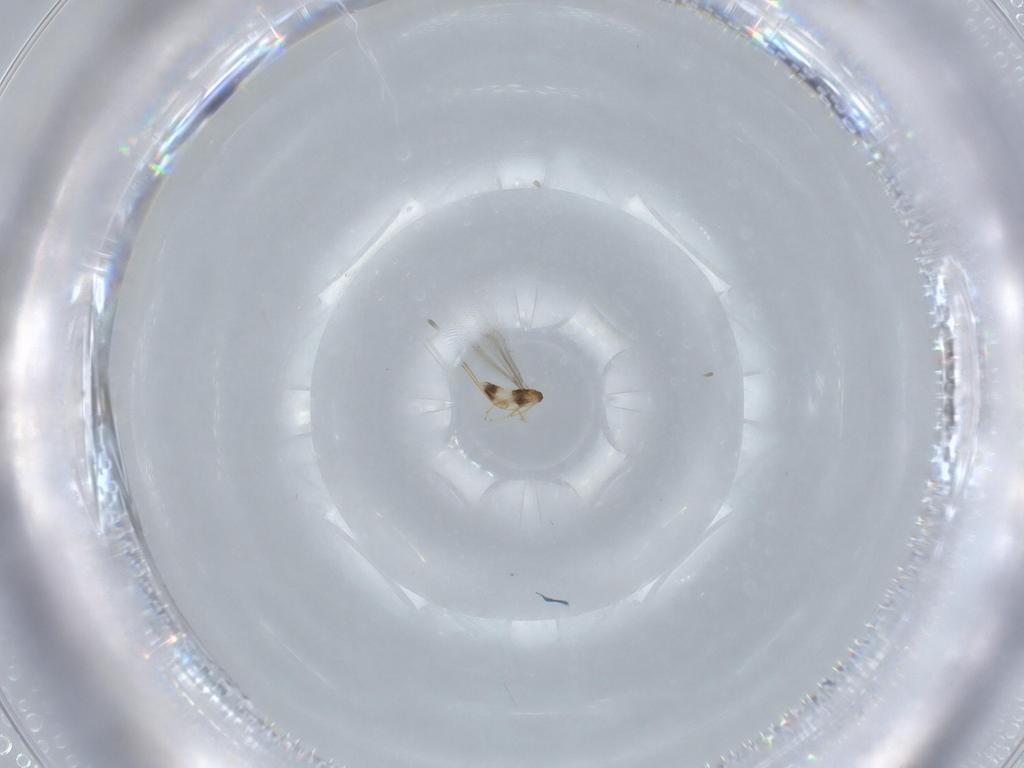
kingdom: Animalia
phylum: Arthropoda
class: Insecta
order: Hymenoptera
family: Mymaridae
